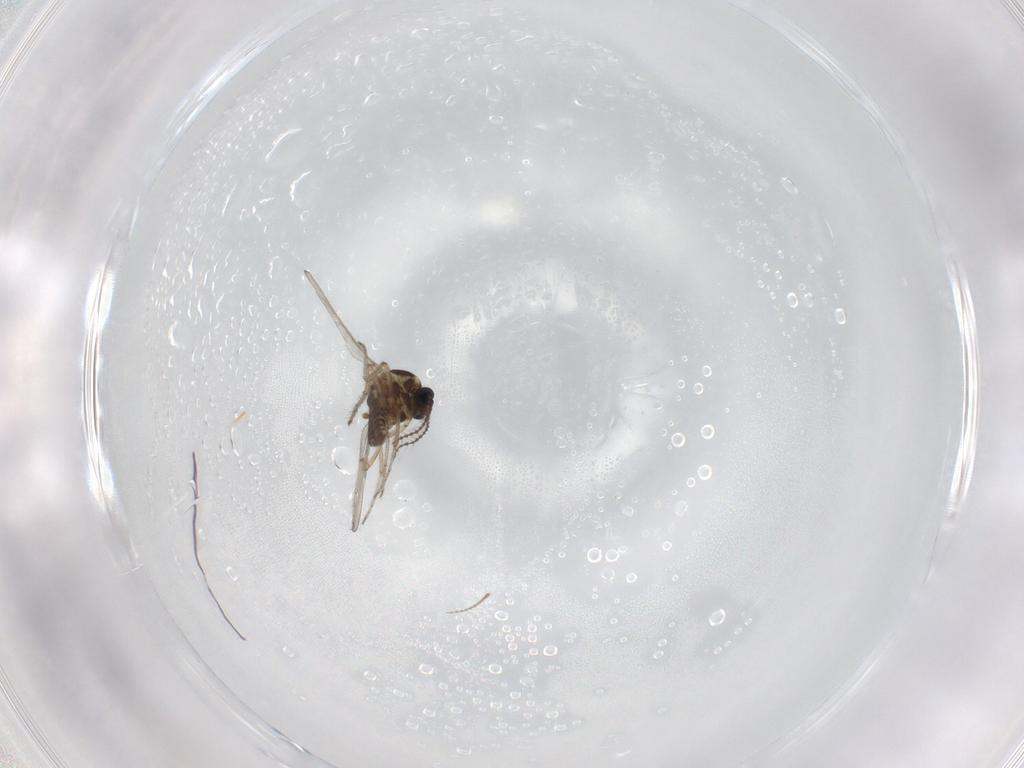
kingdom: Animalia
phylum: Arthropoda
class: Insecta
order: Diptera
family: Ceratopogonidae
